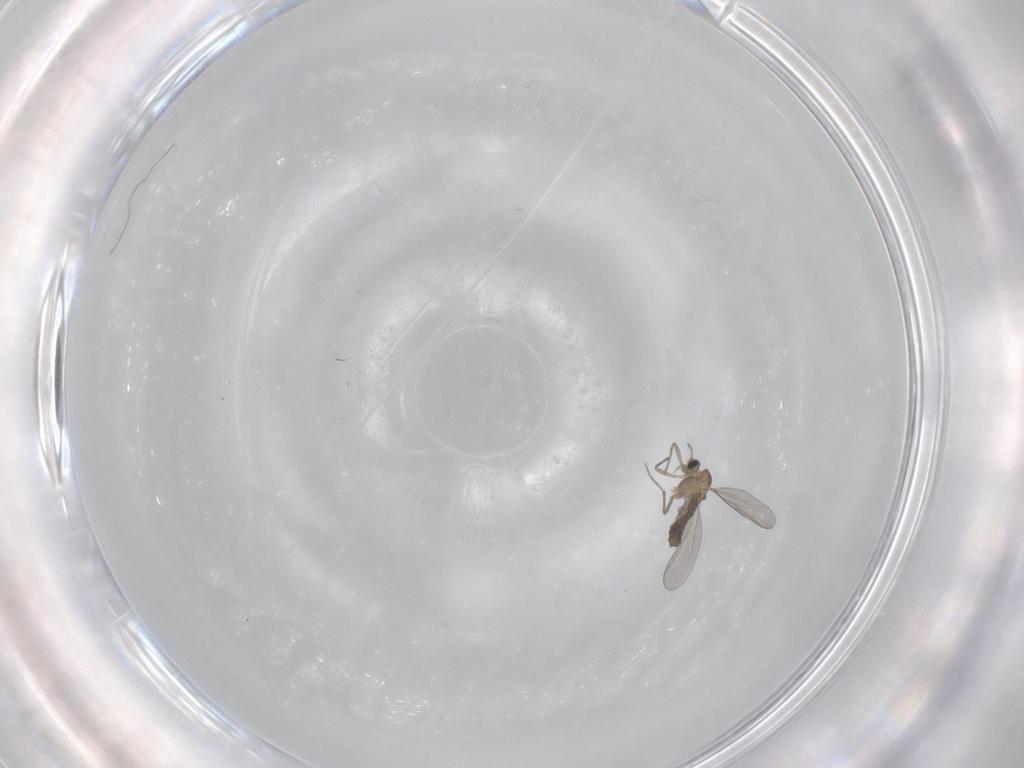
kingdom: Animalia
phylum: Arthropoda
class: Insecta
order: Diptera
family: Chironomidae
